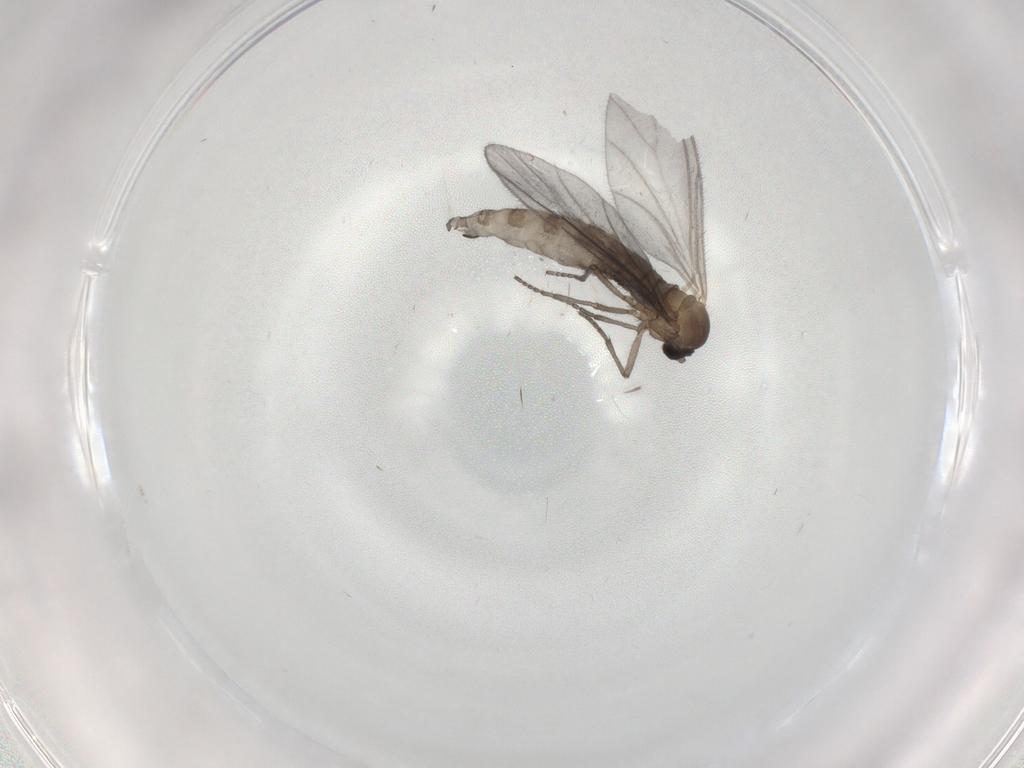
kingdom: Animalia
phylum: Arthropoda
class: Insecta
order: Diptera
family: Sciaridae
